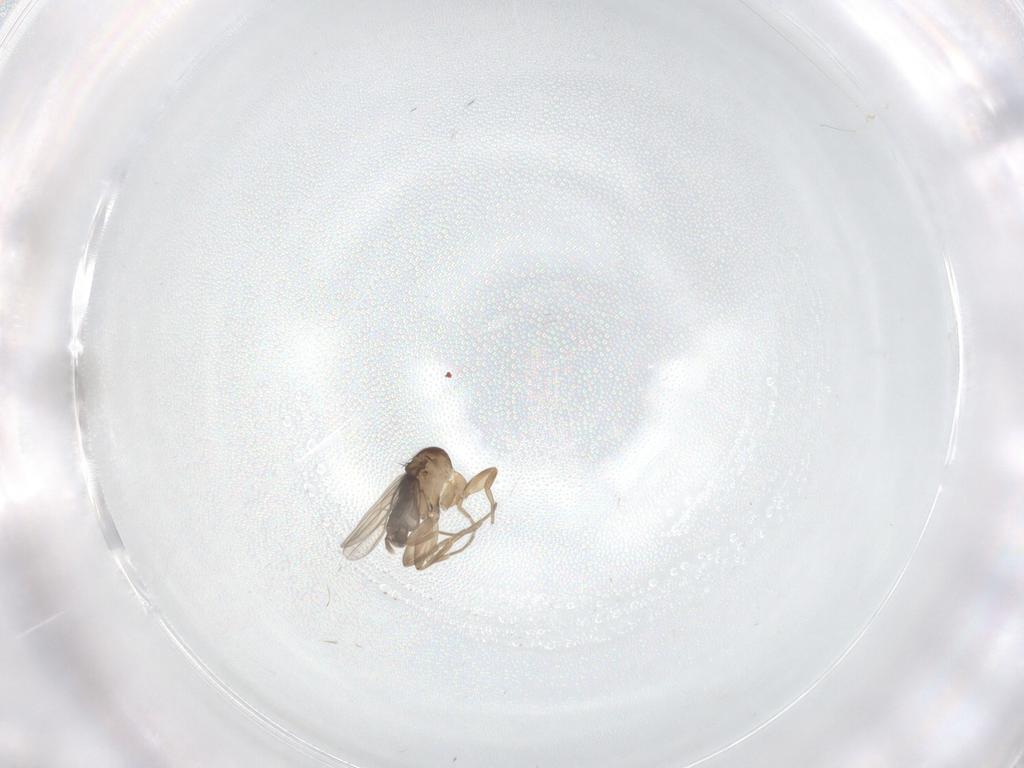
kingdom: Animalia
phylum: Arthropoda
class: Insecta
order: Diptera
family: Phoridae
